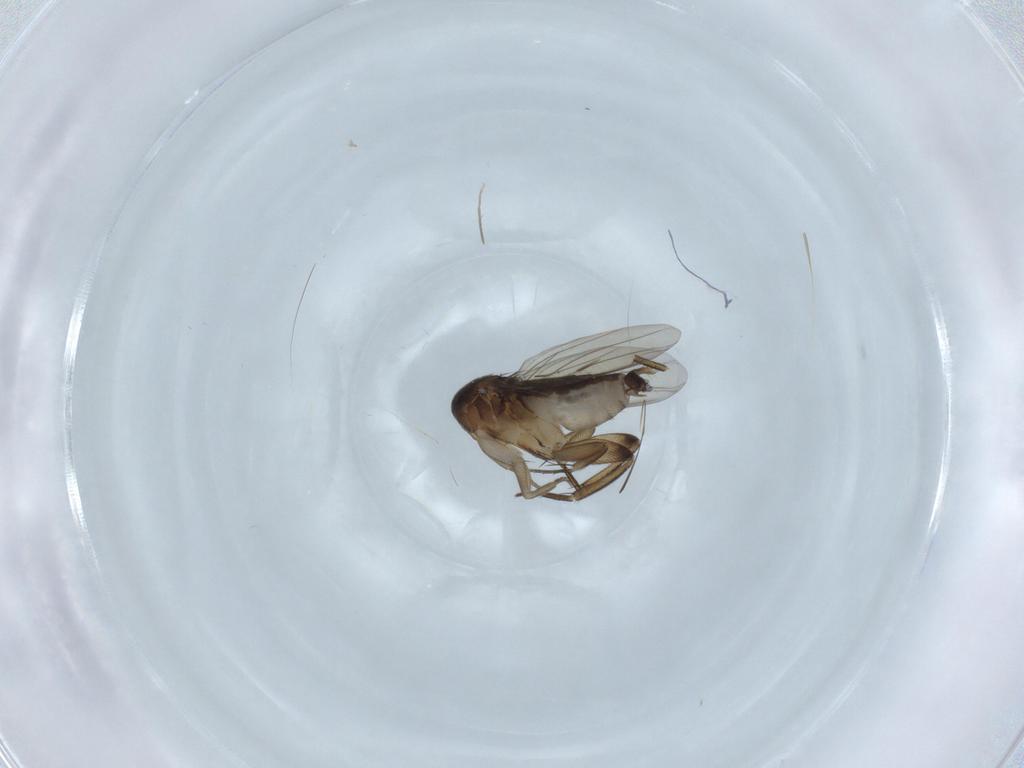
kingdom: Animalia
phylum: Arthropoda
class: Insecta
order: Diptera
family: Phoridae
